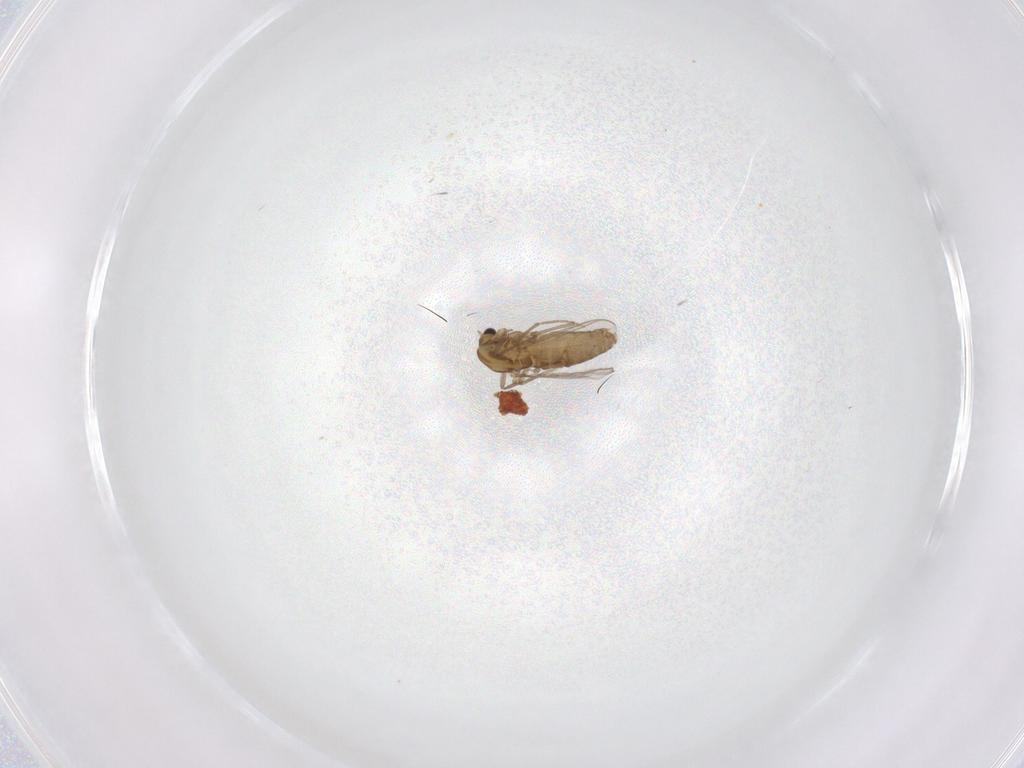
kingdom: Animalia
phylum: Arthropoda
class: Insecta
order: Diptera
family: Chironomidae
